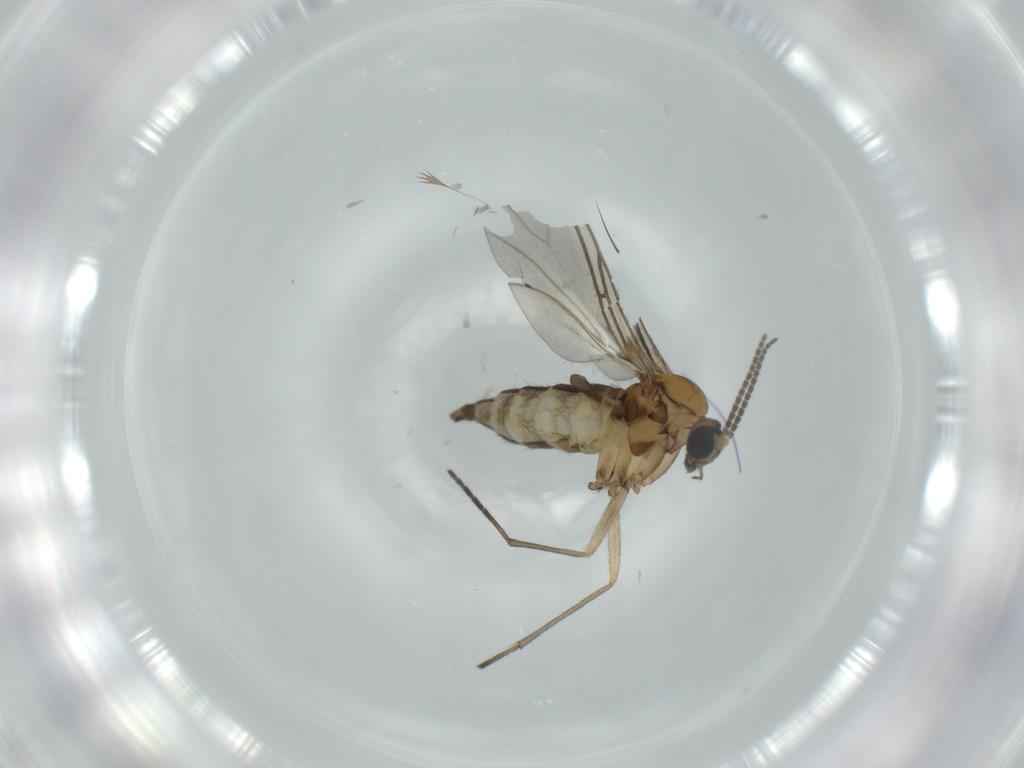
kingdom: Animalia
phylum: Arthropoda
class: Insecta
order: Diptera
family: Sciaridae
